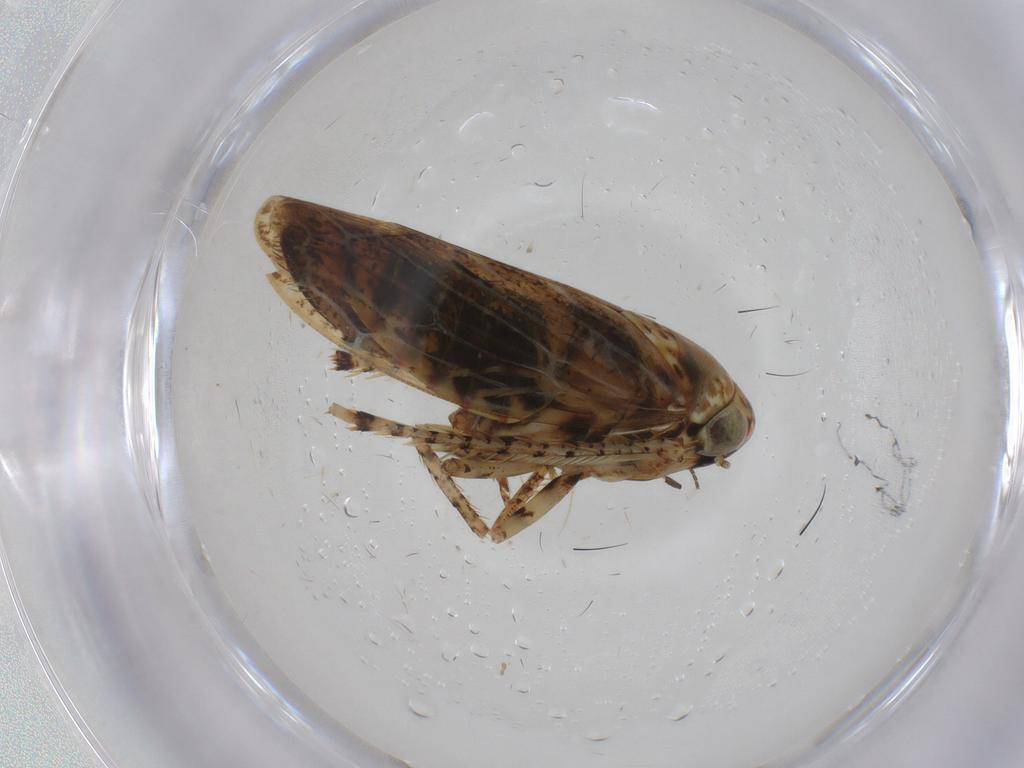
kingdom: Animalia
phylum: Arthropoda
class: Insecta
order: Hemiptera
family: Cicadellidae
